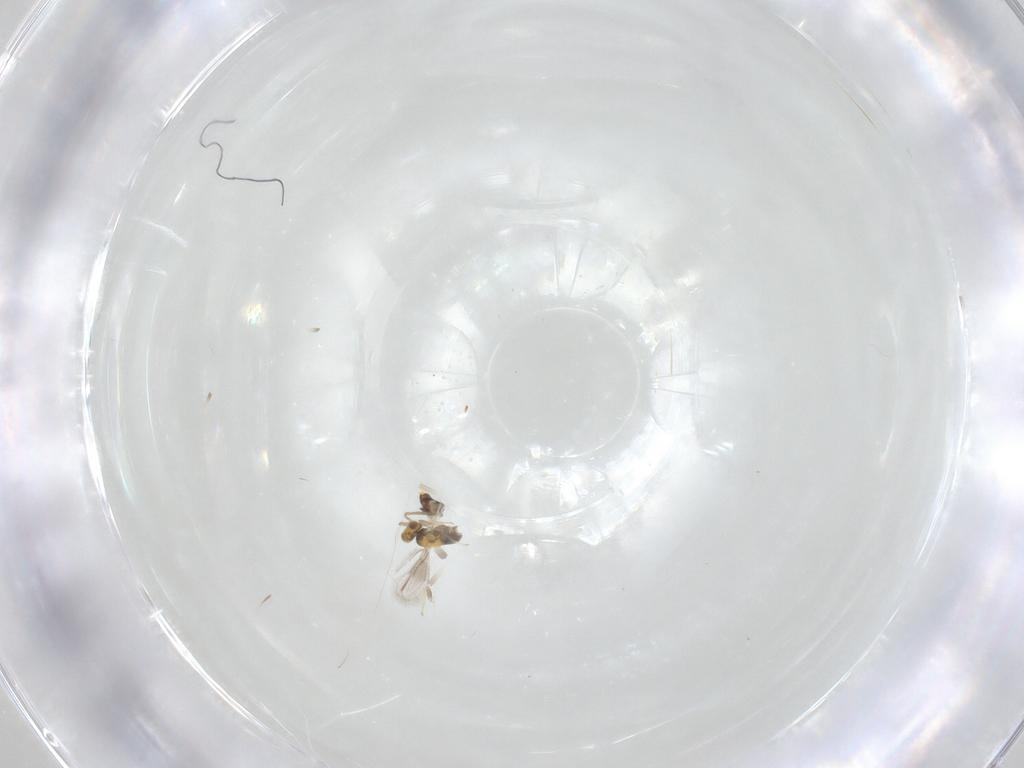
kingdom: Animalia
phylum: Arthropoda
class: Insecta
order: Hymenoptera
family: Aphelinidae
